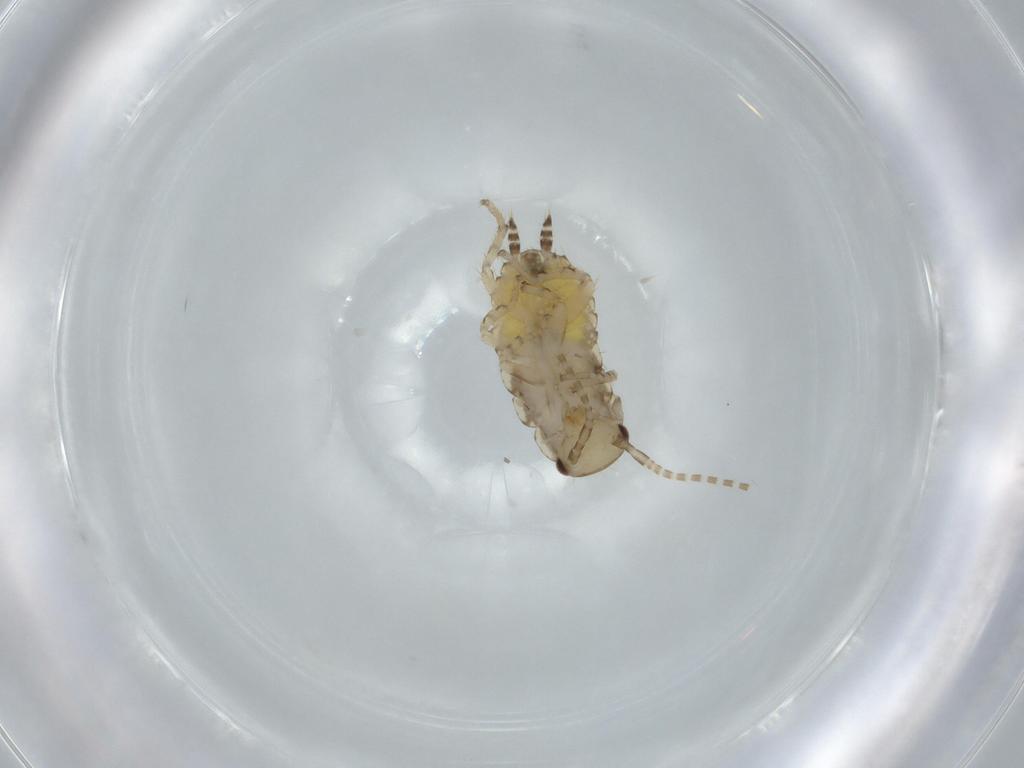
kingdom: Animalia
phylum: Arthropoda
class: Insecta
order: Blattodea
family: Ectobiidae
